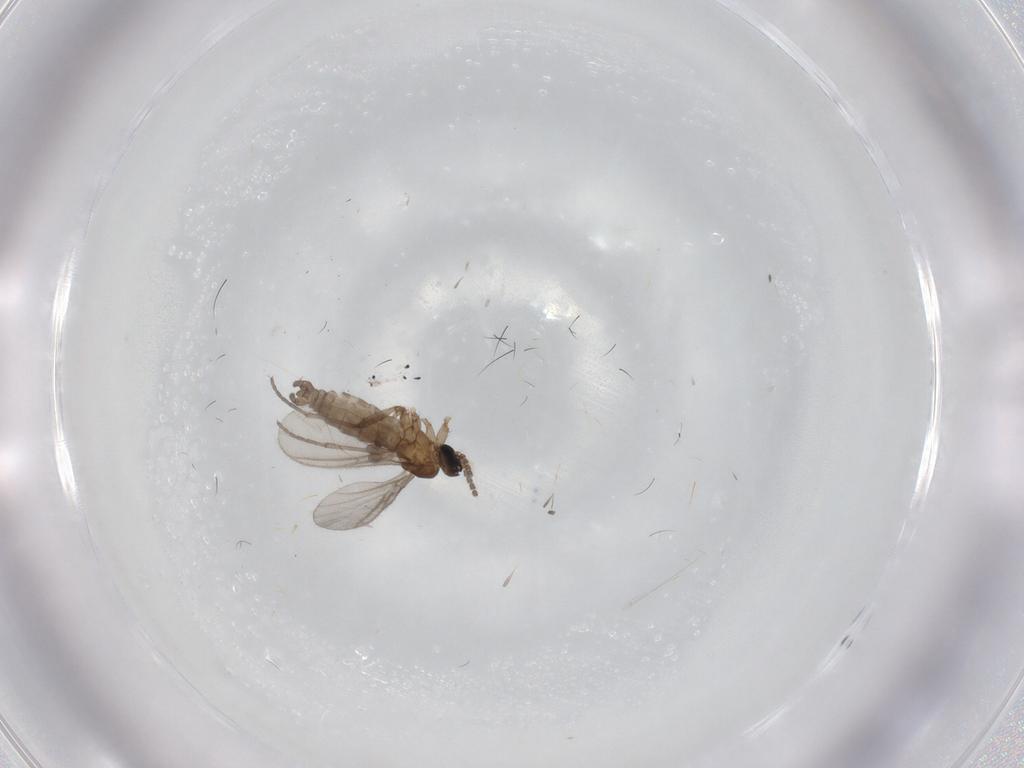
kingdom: Animalia
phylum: Arthropoda
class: Insecta
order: Diptera
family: Sciaridae
